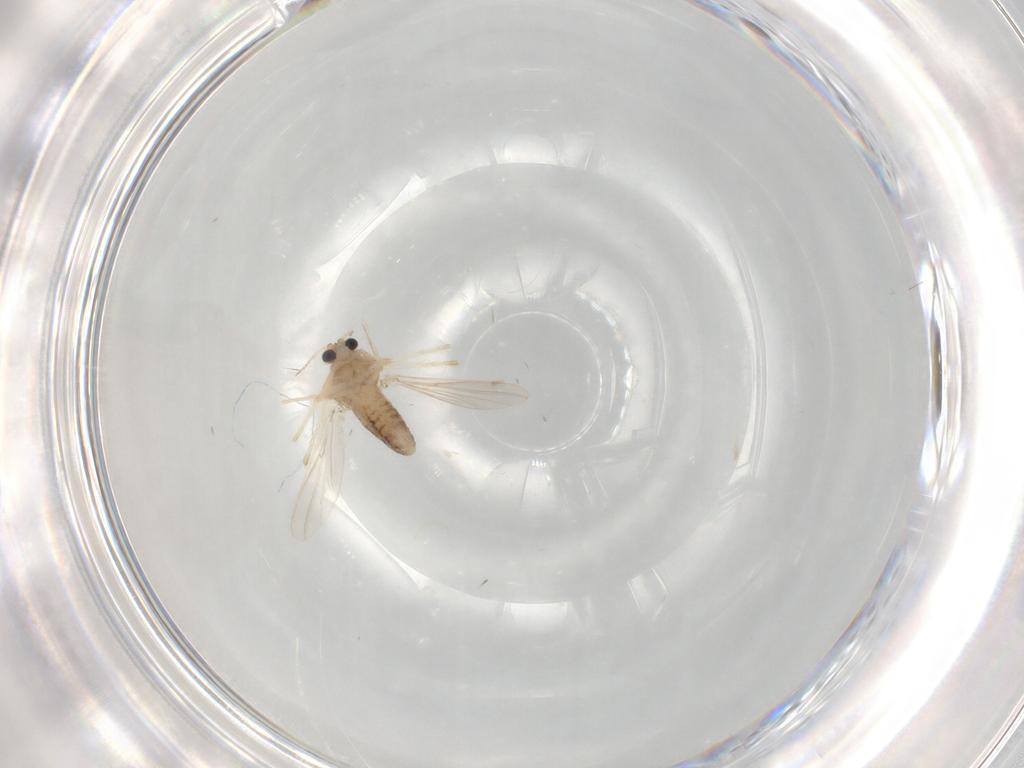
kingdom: Animalia
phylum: Arthropoda
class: Insecta
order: Diptera
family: Chironomidae
